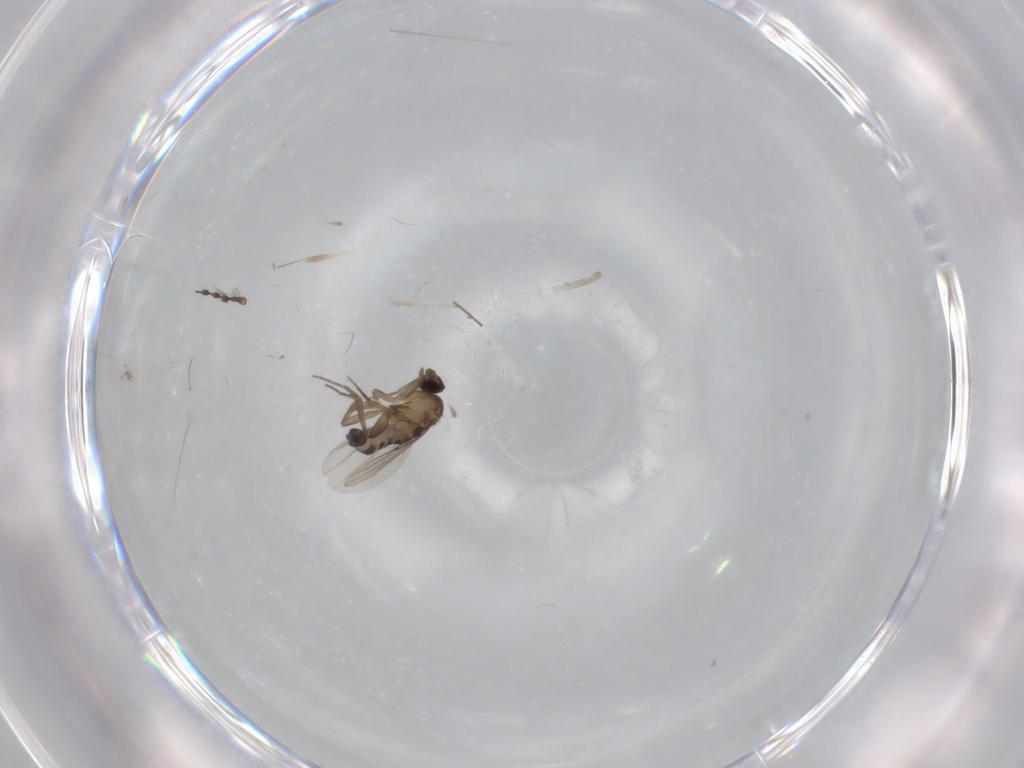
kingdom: Animalia
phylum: Arthropoda
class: Insecta
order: Diptera
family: Phoridae
